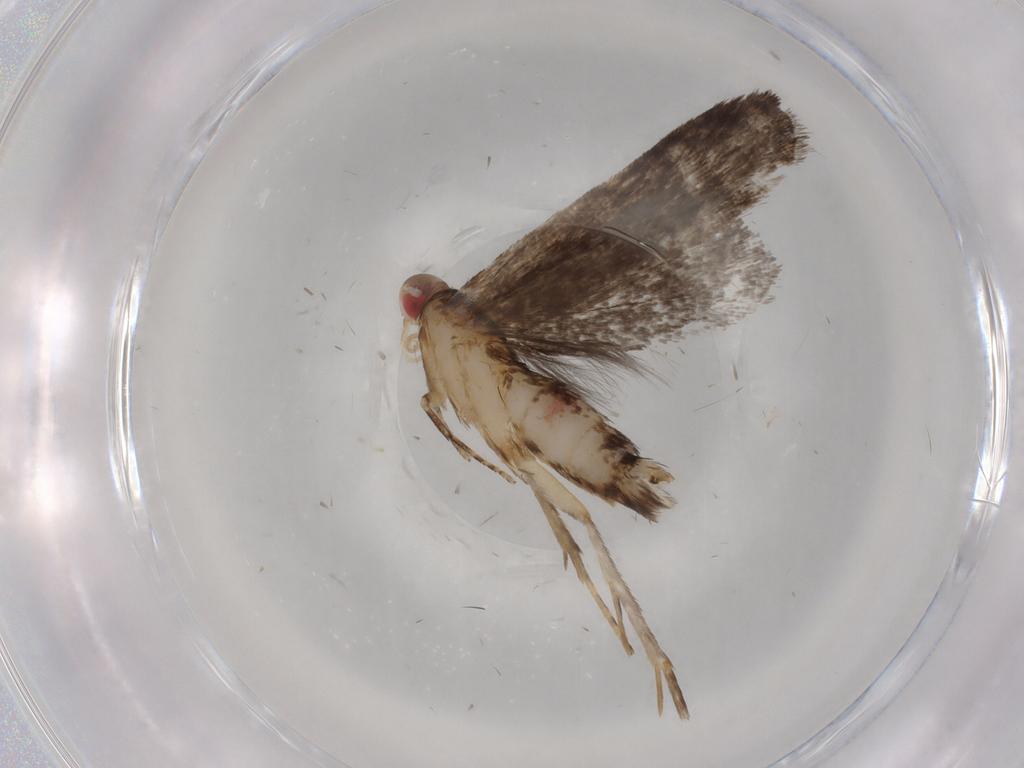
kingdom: Animalia
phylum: Arthropoda
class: Insecta
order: Lepidoptera
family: Gelechiidae
